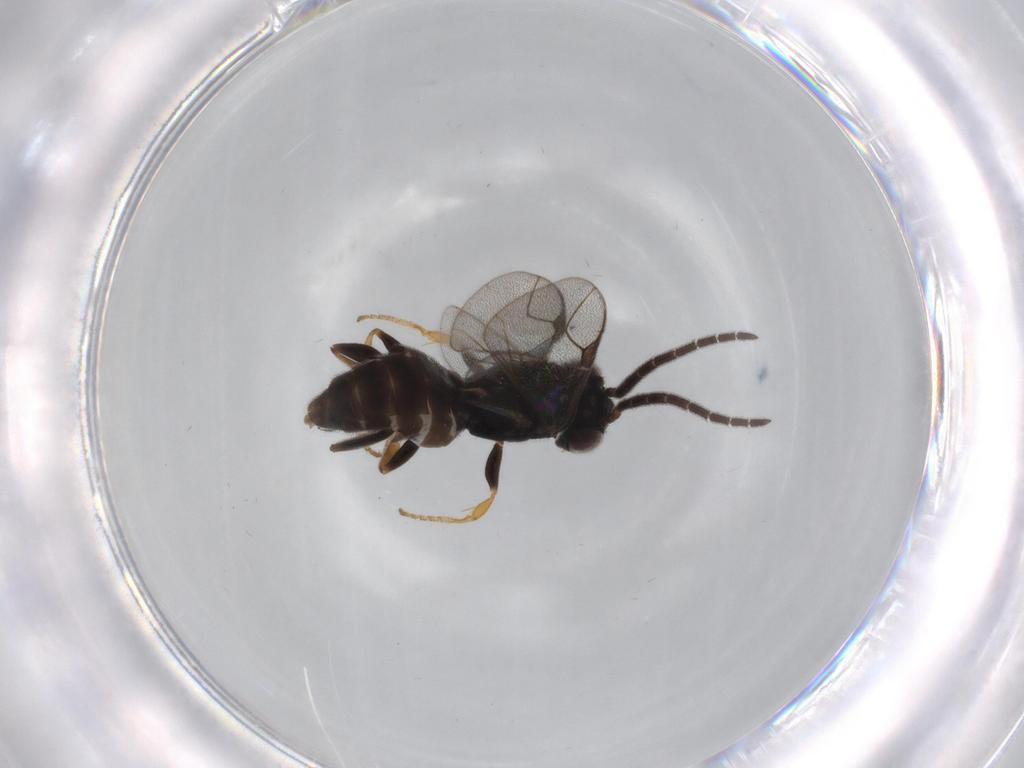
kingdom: Animalia
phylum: Arthropoda
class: Insecta
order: Hymenoptera
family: Dryinidae
